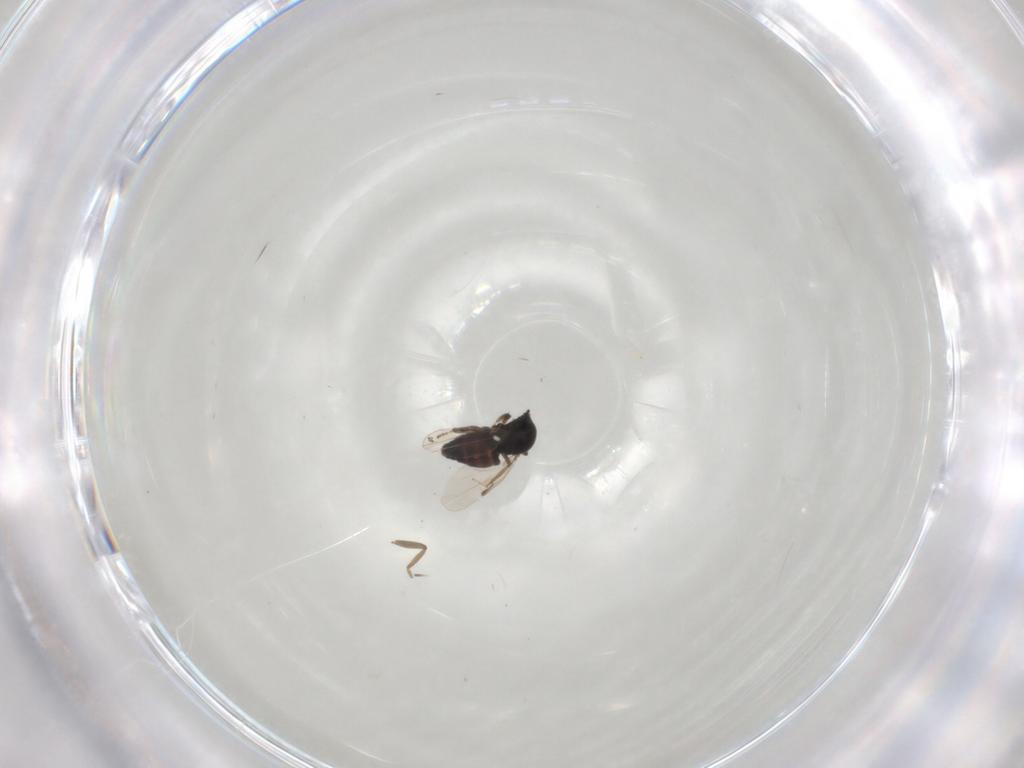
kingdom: Animalia
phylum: Arthropoda
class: Insecta
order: Diptera
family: Ceratopogonidae
